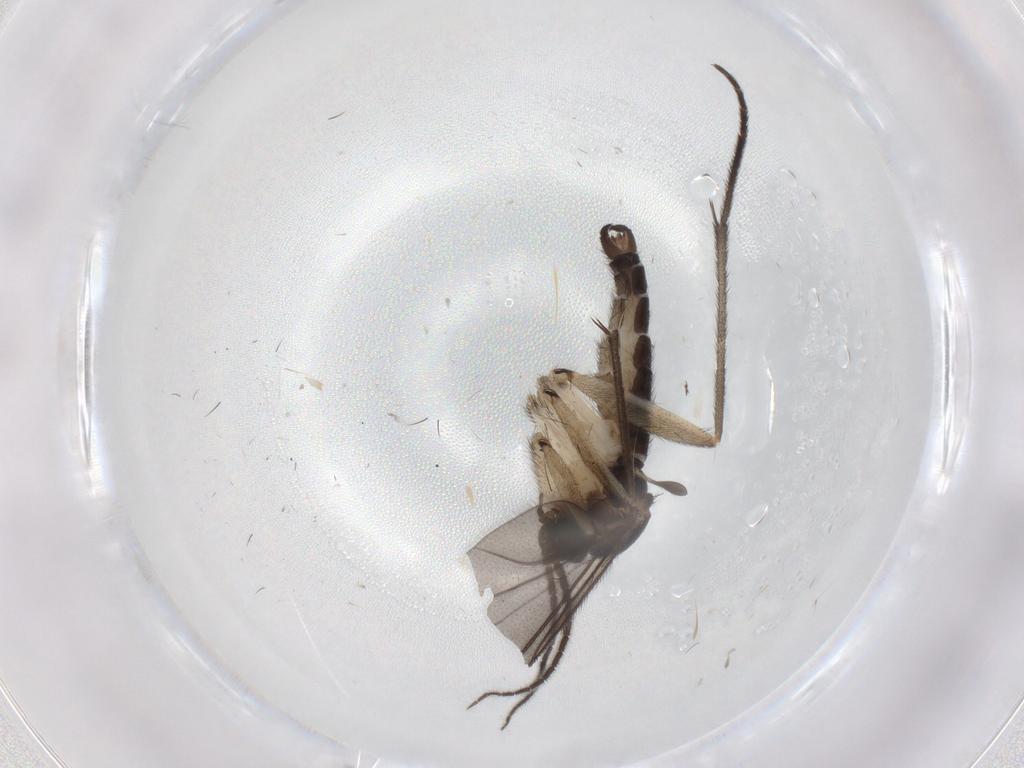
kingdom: Animalia
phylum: Arthropoda
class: Insecta
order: Diptera
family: Sciaridae
